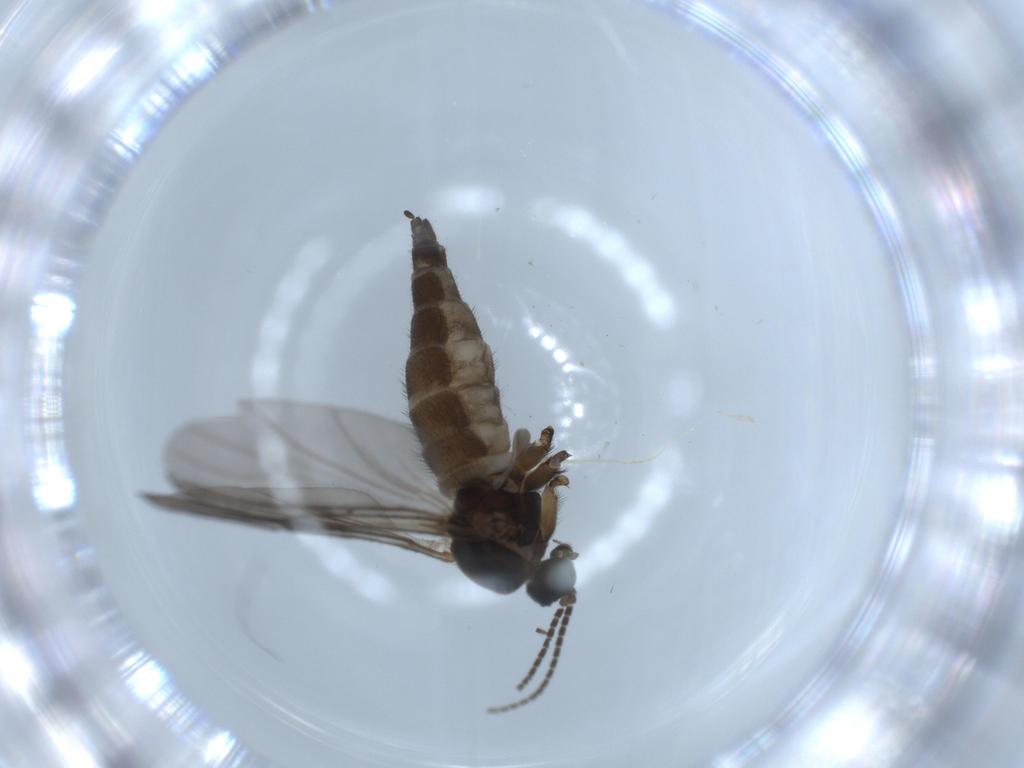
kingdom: Animalia
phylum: Arthropoda
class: Insecta
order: Diptera
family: Sciaridae
